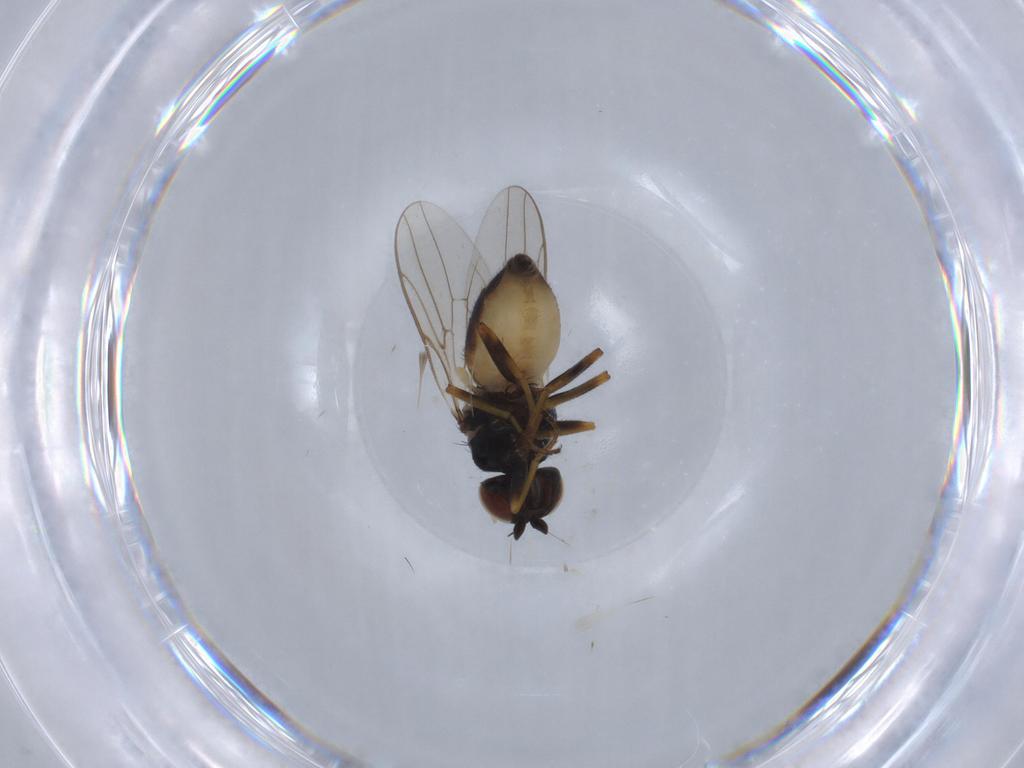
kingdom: Animalia
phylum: Arthropoda
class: Insecta
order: Diptera
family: Chloropidae
